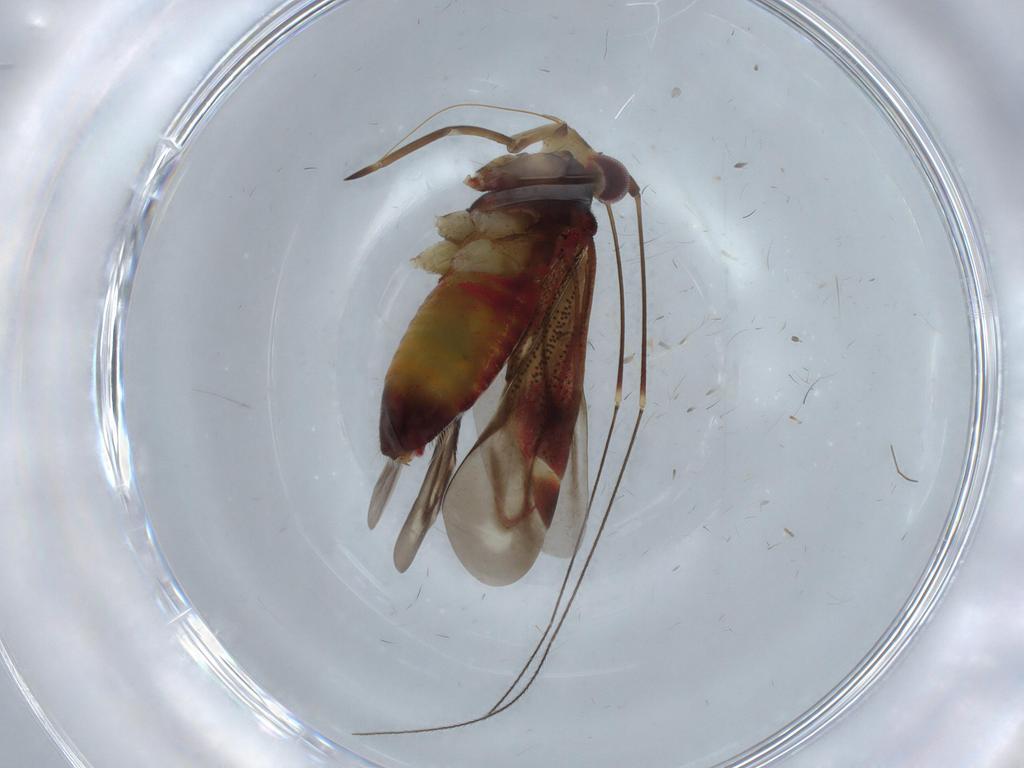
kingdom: Animalia
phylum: Arthropoda
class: Insecta
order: Hemiptera
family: Miridae
